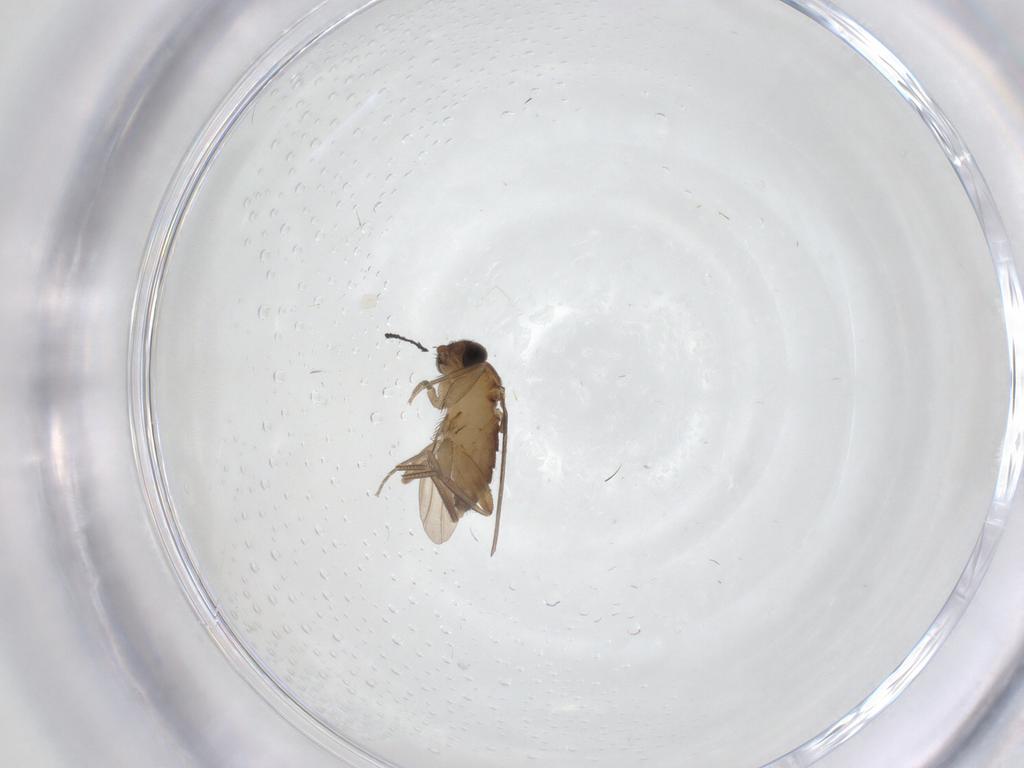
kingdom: Animalia
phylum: Arthropoda
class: Insecta
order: Diptera
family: Phoridae
